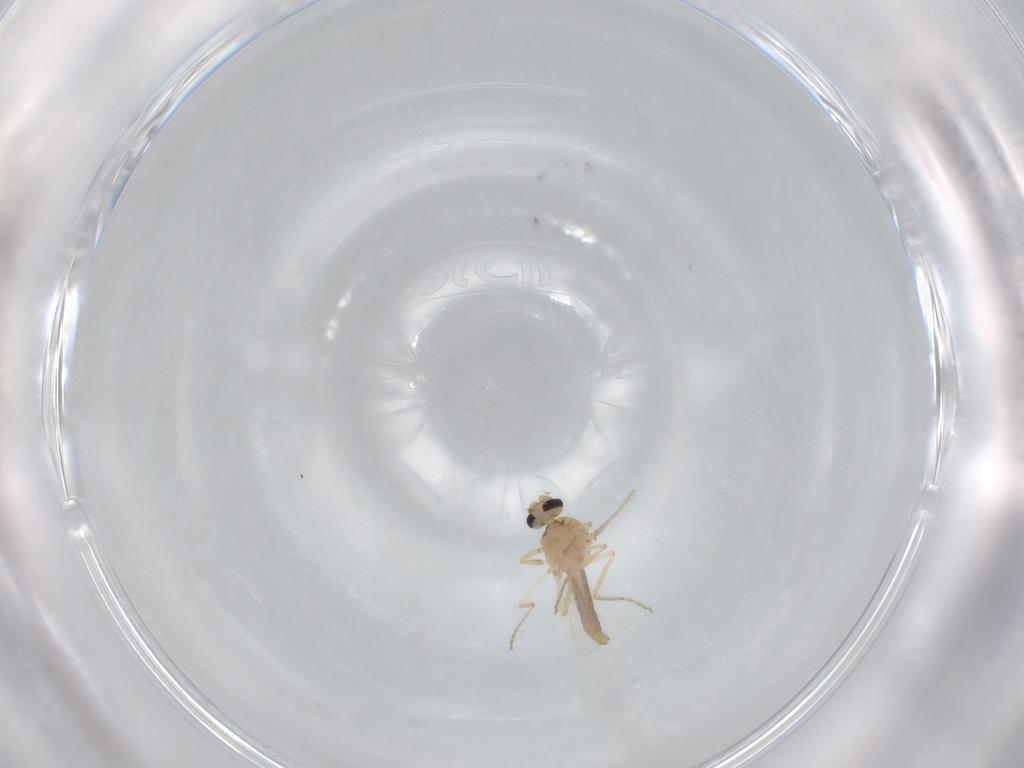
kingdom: Animalia
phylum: Arthropoda
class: Insecta
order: Diptera
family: Ceratopogonidae
